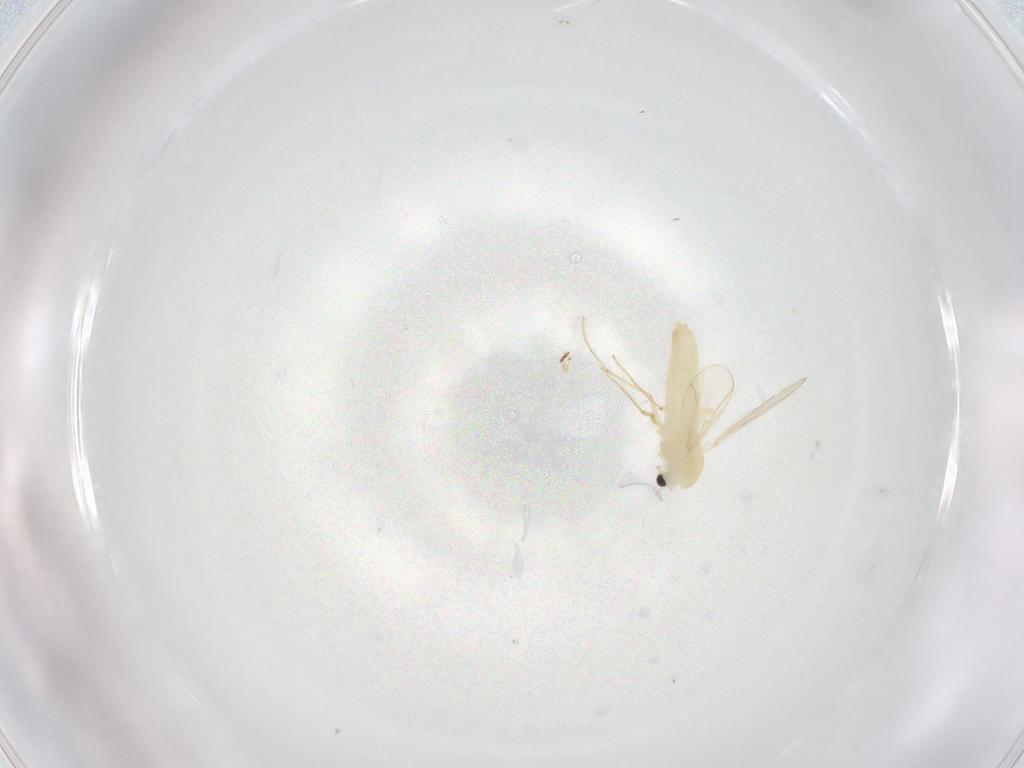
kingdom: Animalia
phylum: Arthropoda
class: Insecta
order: Diptera
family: Chironomidae
